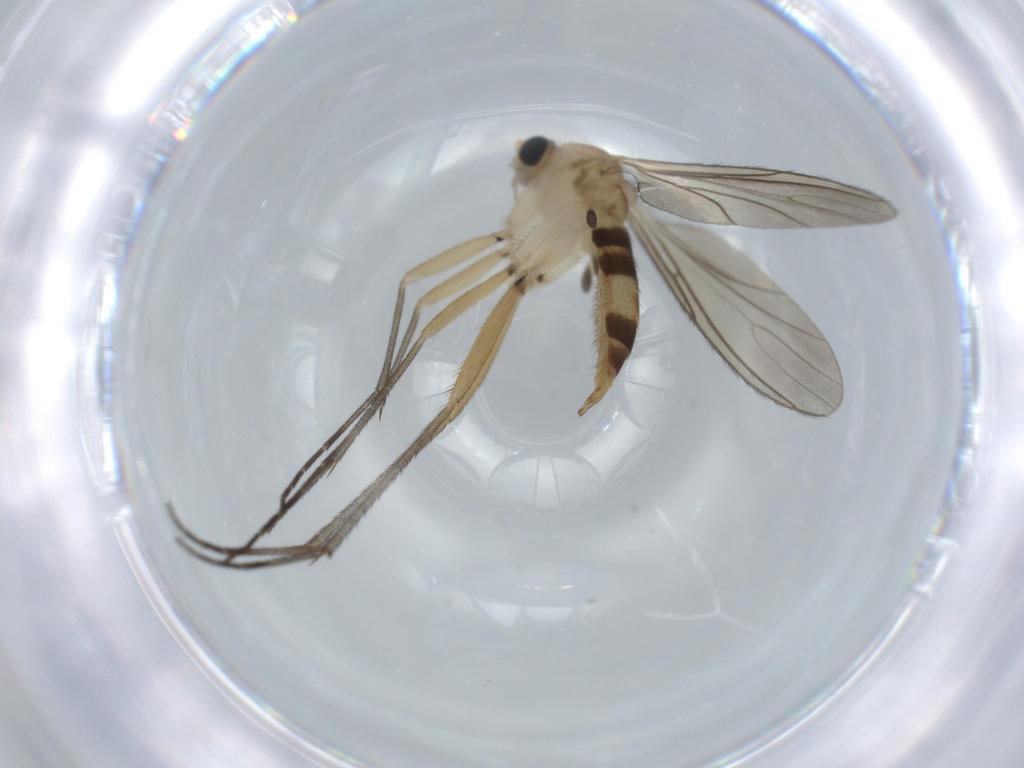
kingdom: Animalia
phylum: Arthropoda
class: Insecta
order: Diptera
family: Sciaridae
